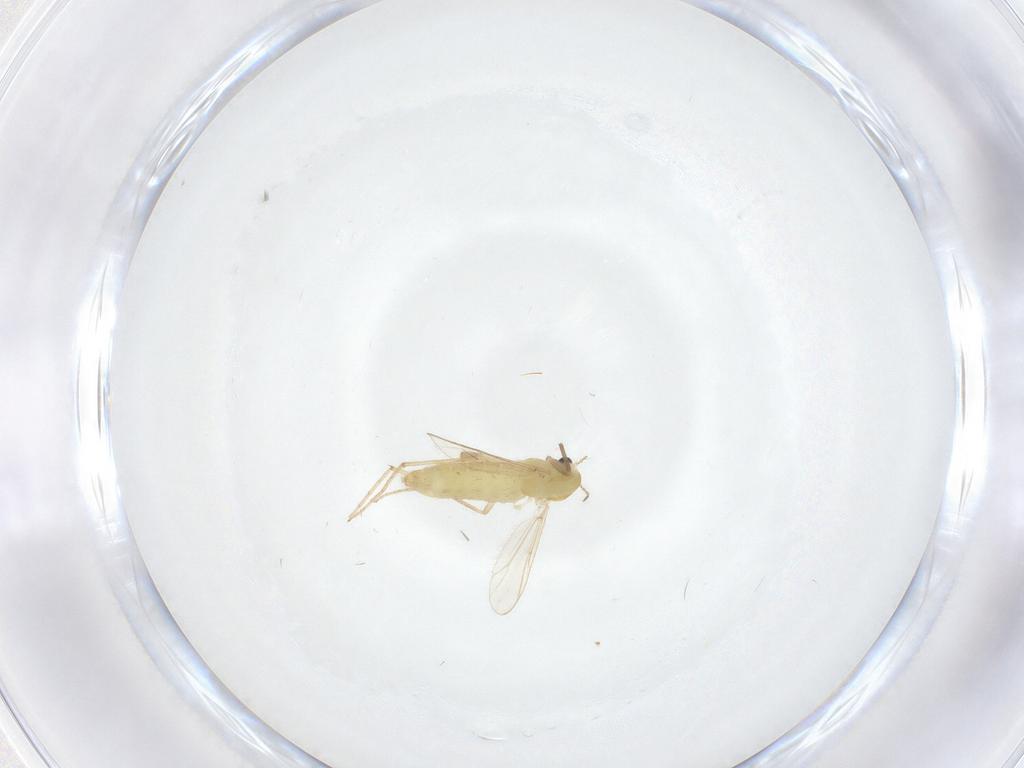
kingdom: Animalia
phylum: Arthropoda
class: Insecta
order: Diptera
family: Chironomidae
